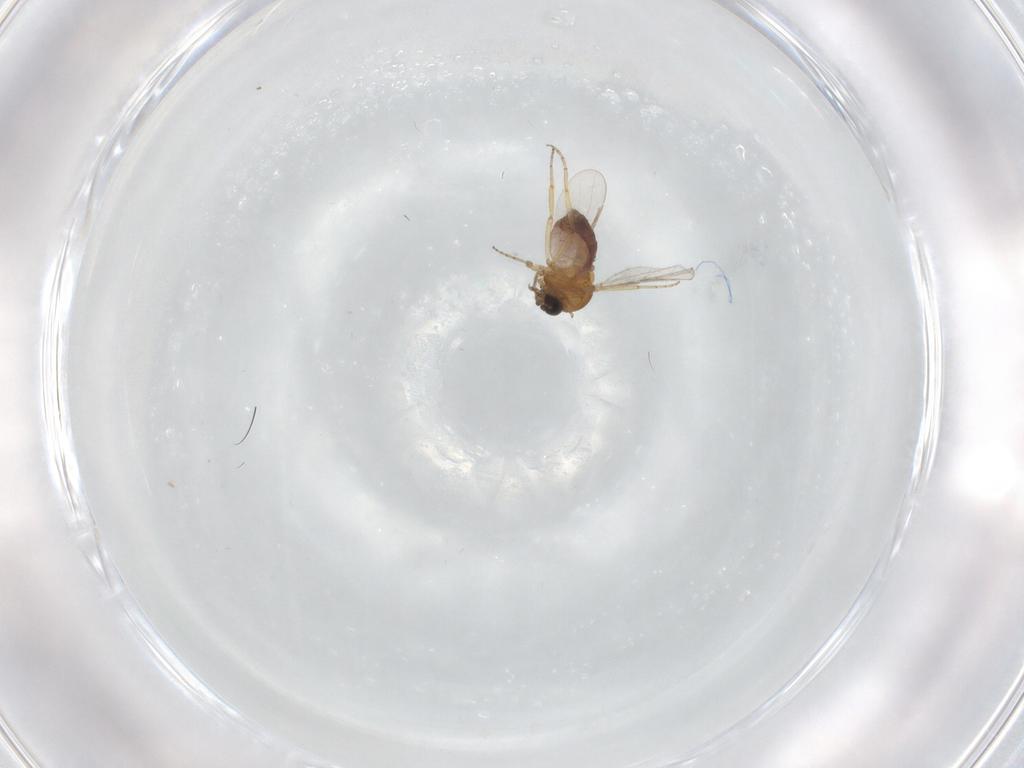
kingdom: Animalia
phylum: Arthropoda
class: Insecta
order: Diptera
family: Ceratopogonidae
